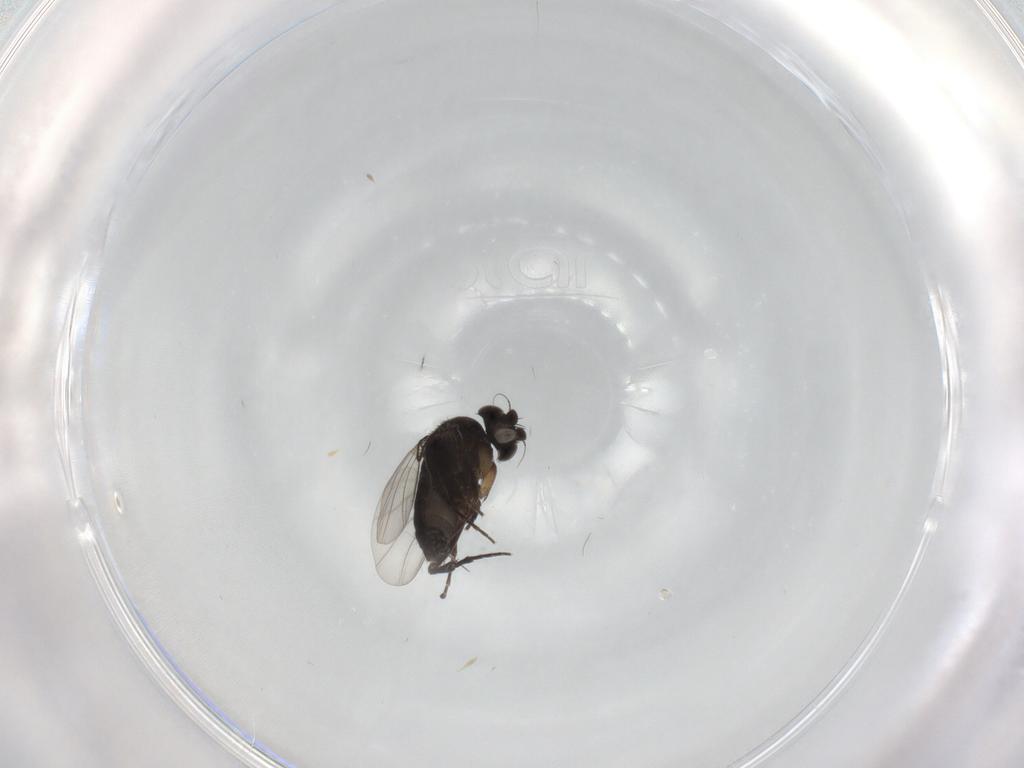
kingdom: Animalia
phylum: Arthropoda
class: Insecta
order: Diptera
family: Phoridae
